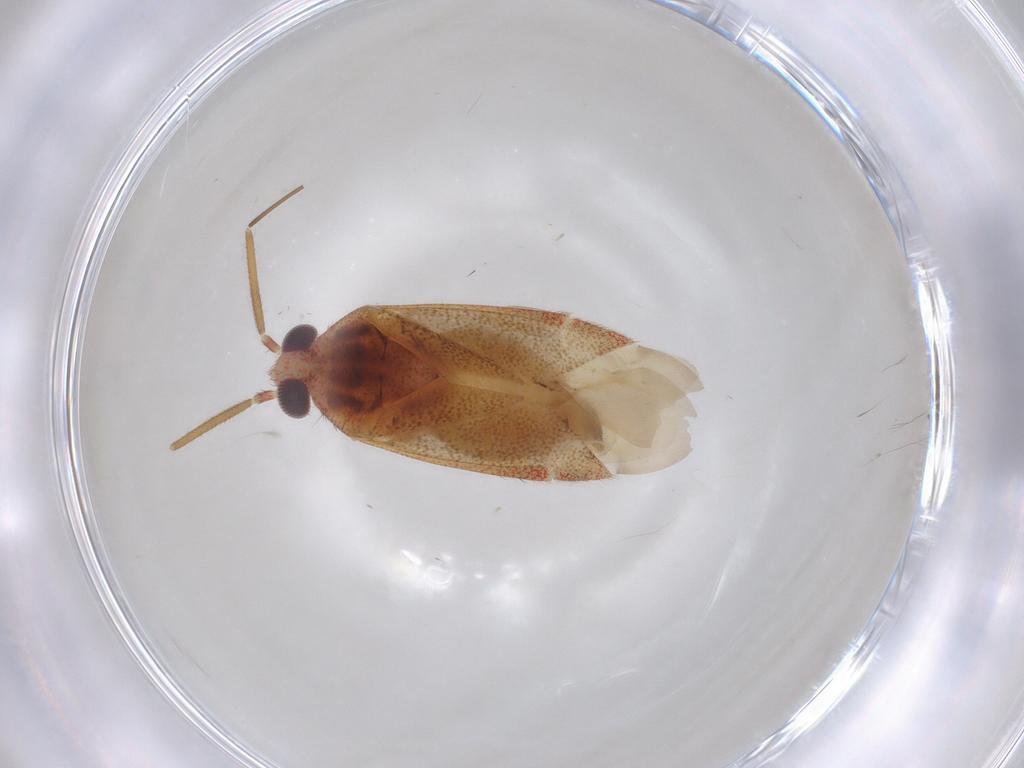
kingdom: Animalia
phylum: Arthropoda
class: Insecta
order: Hemiptera
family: Miridae
